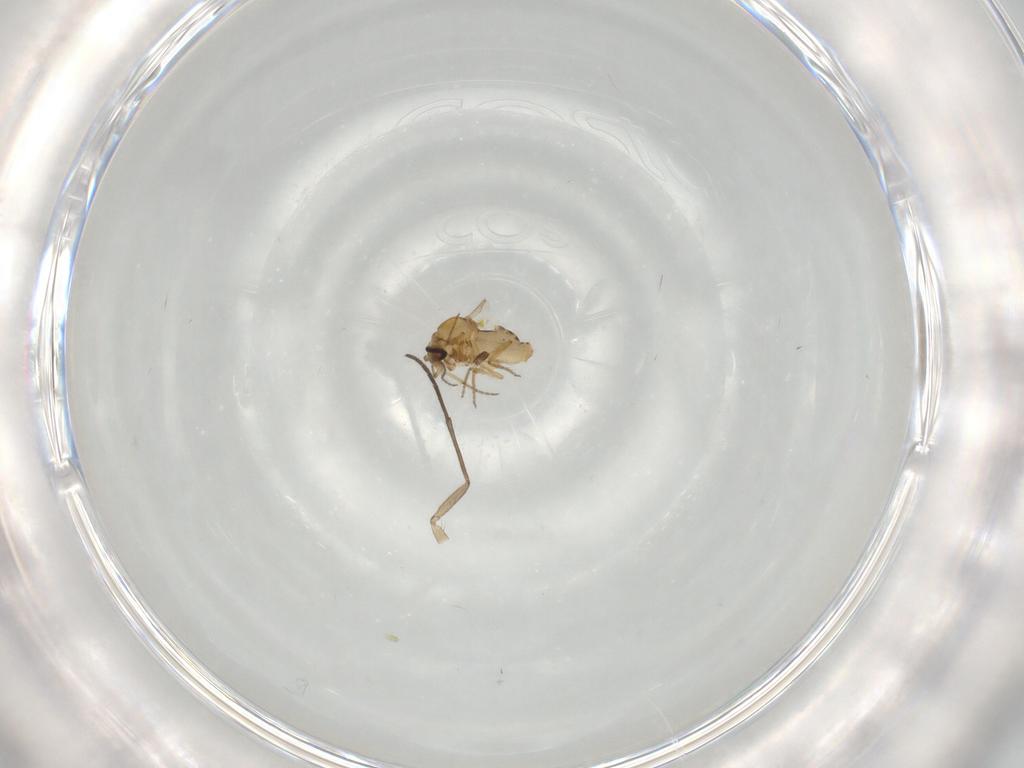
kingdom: Animalia
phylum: Arthropoda
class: Insecta
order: Diptera
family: Ceratopogonidae
